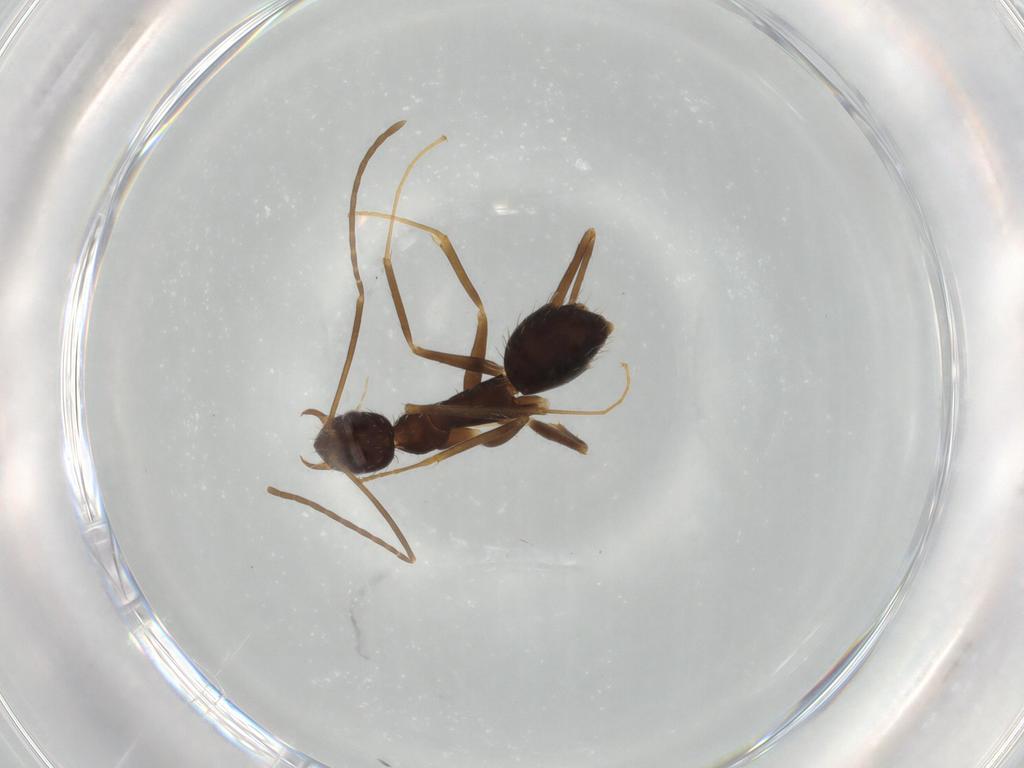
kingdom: Animalia
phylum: Arthropoda
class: Insecta
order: Hymenoptera
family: Formicidae
